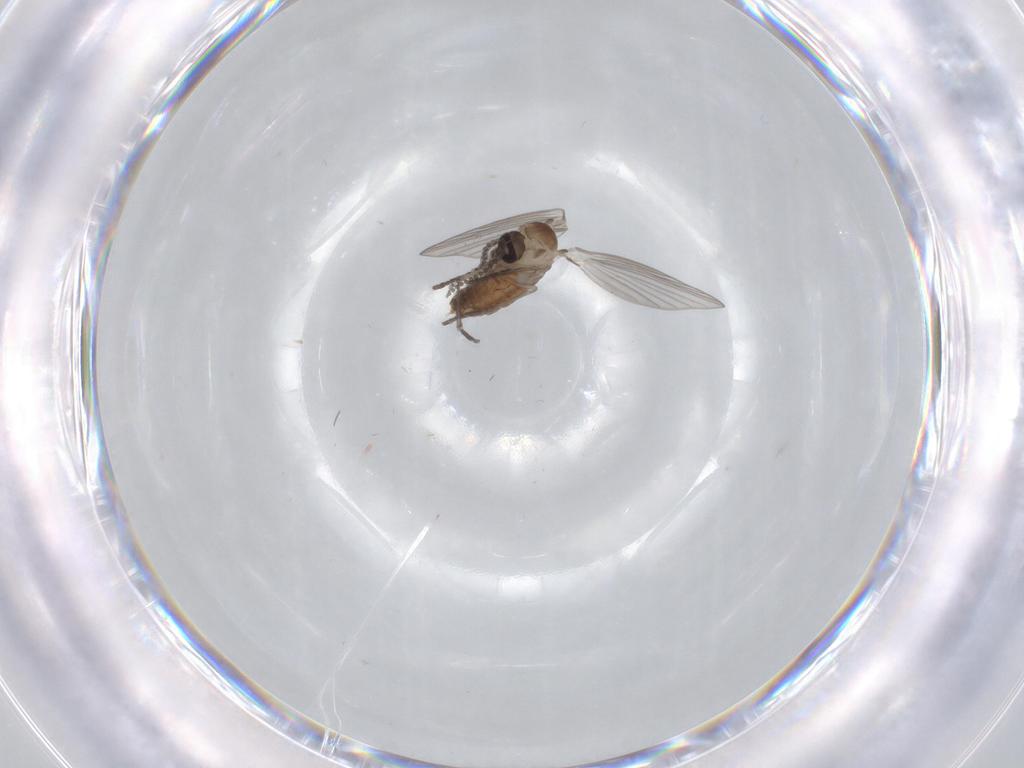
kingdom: Animalia
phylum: Arthropoda
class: Insecta
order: Diptera
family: Psychodidae
